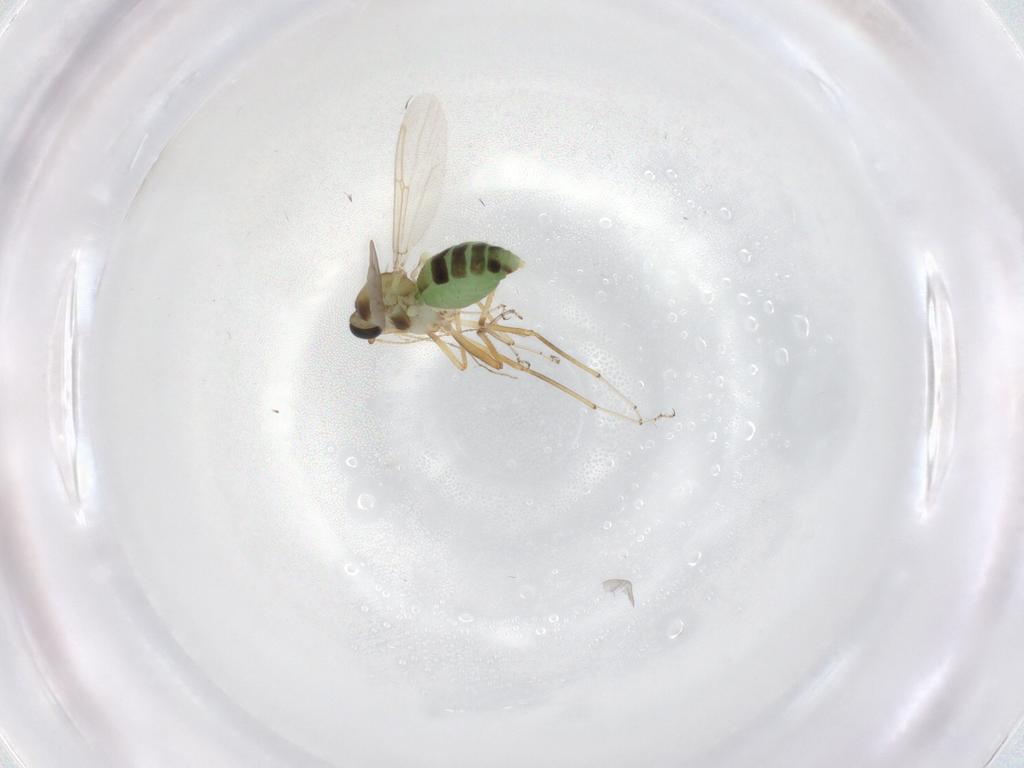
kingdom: Animalia
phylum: Arthropoda
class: Insecta
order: Diptera
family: Ceratopogonidae
